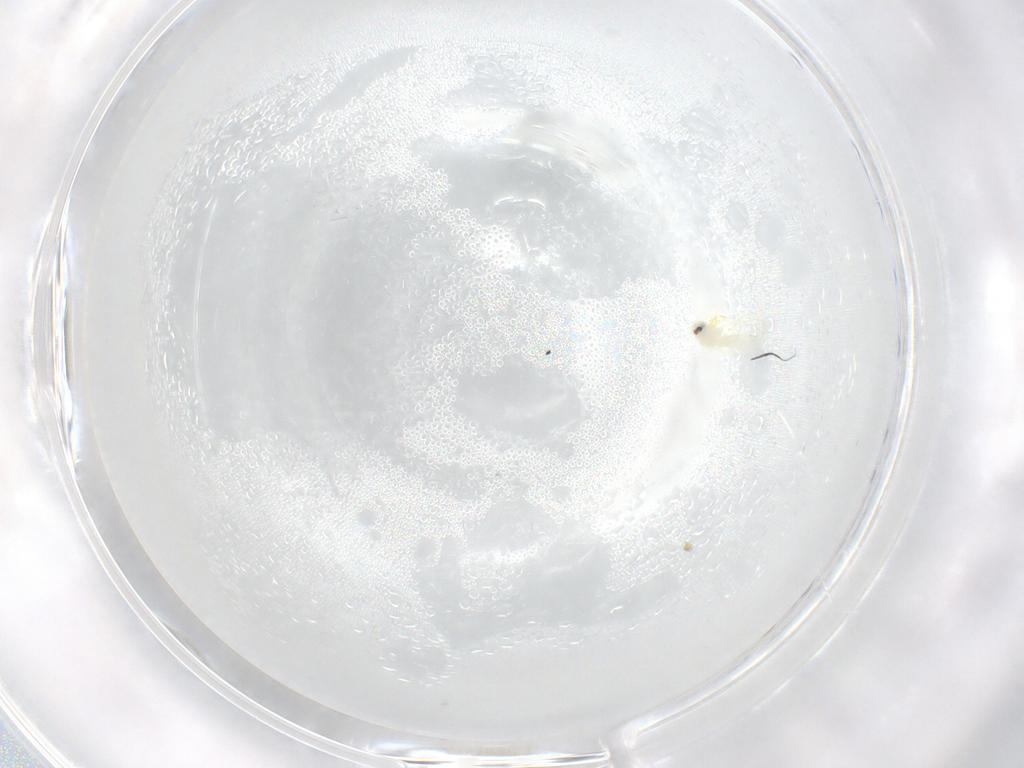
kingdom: Animalia
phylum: Arthropoda
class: Insecta
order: Hemiptera
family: Aleyrodidae
